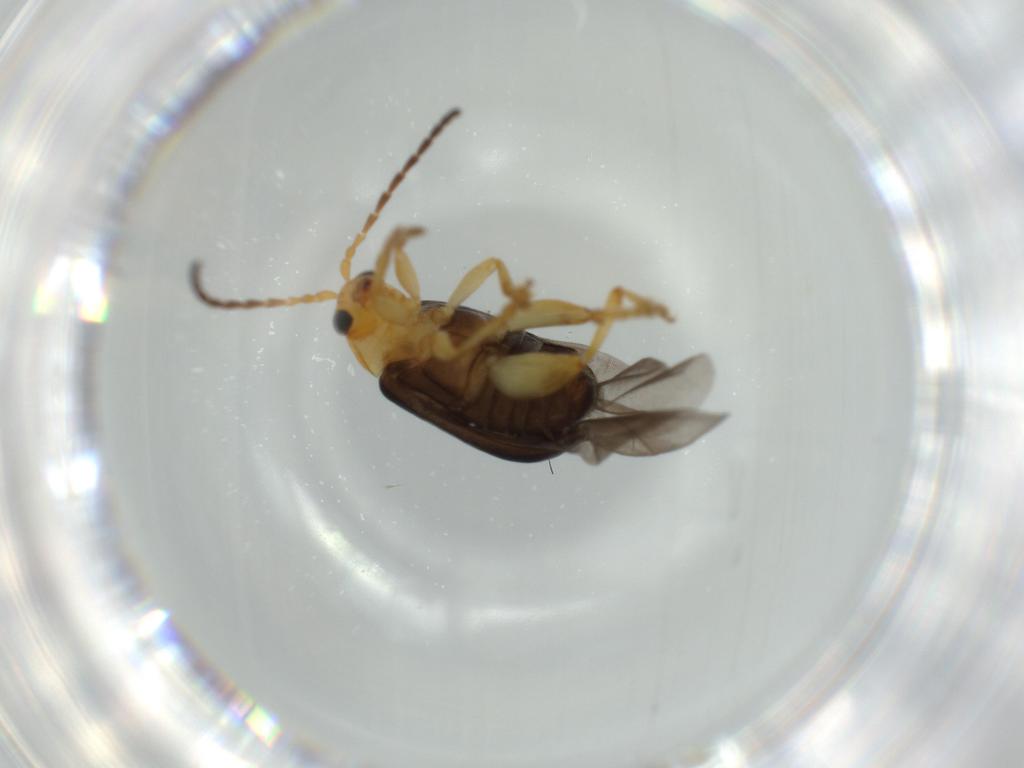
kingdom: Animalia
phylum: Arthropoda
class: Insecta
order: Coleoptera
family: Chrysomelidae
